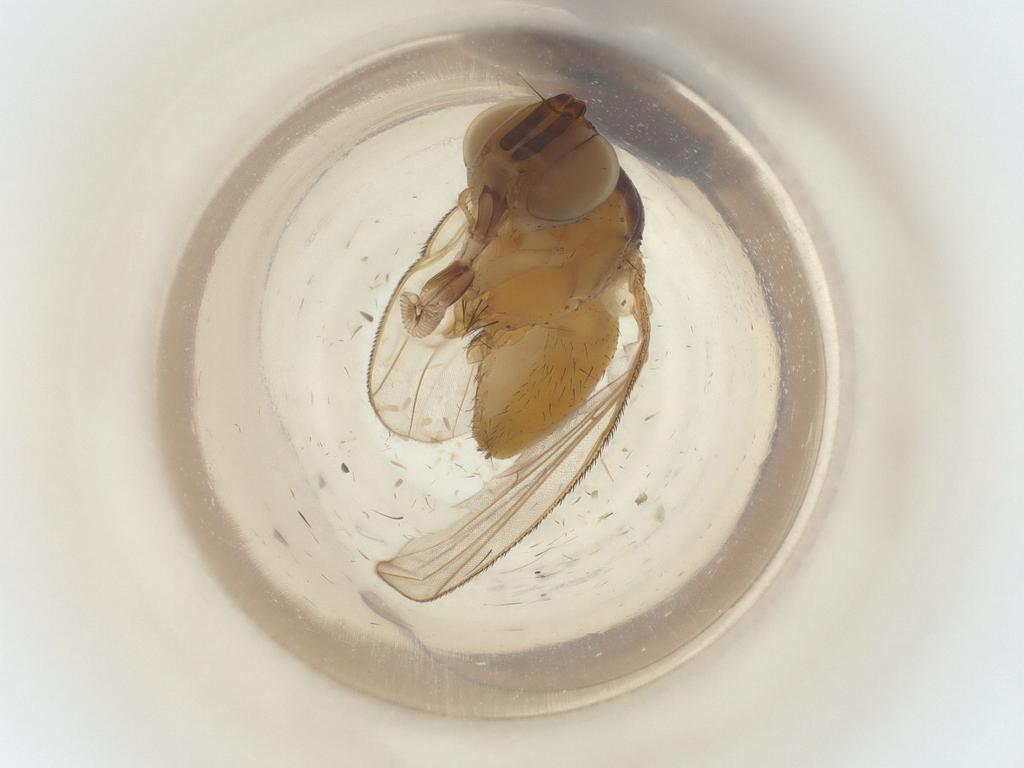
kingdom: Animalia
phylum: Arthropoda
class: Insecta
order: Diptera
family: Muscidae
